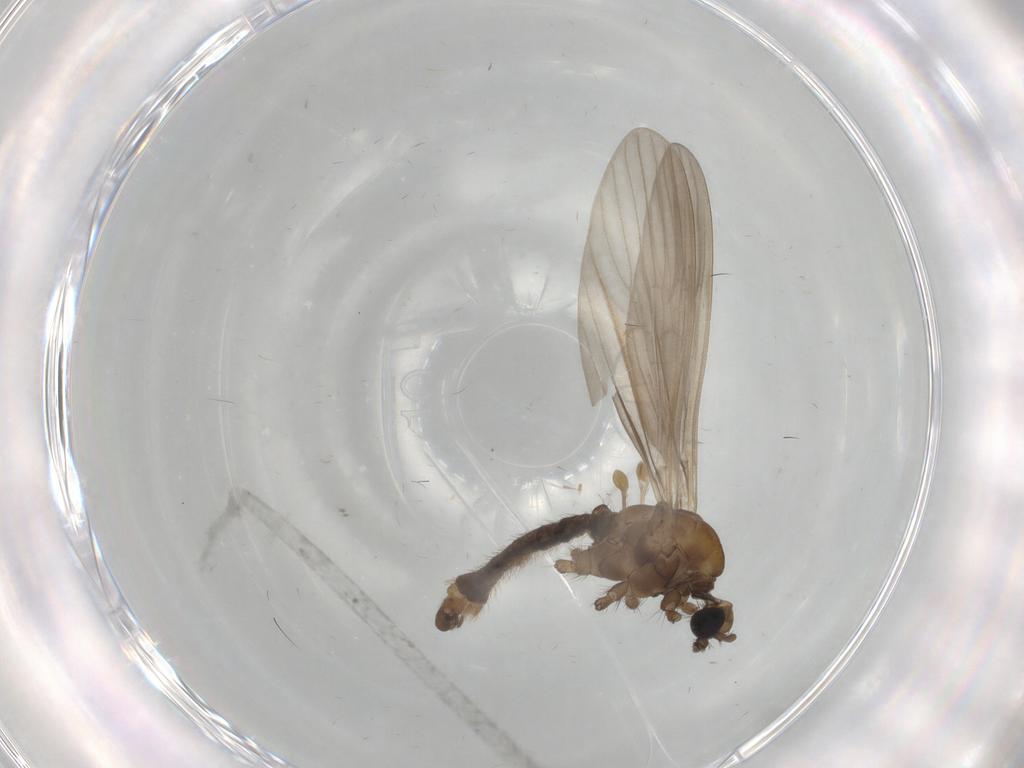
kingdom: Animalia
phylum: Arthropoda
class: Insecta
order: Diptera
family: Limoniidae
